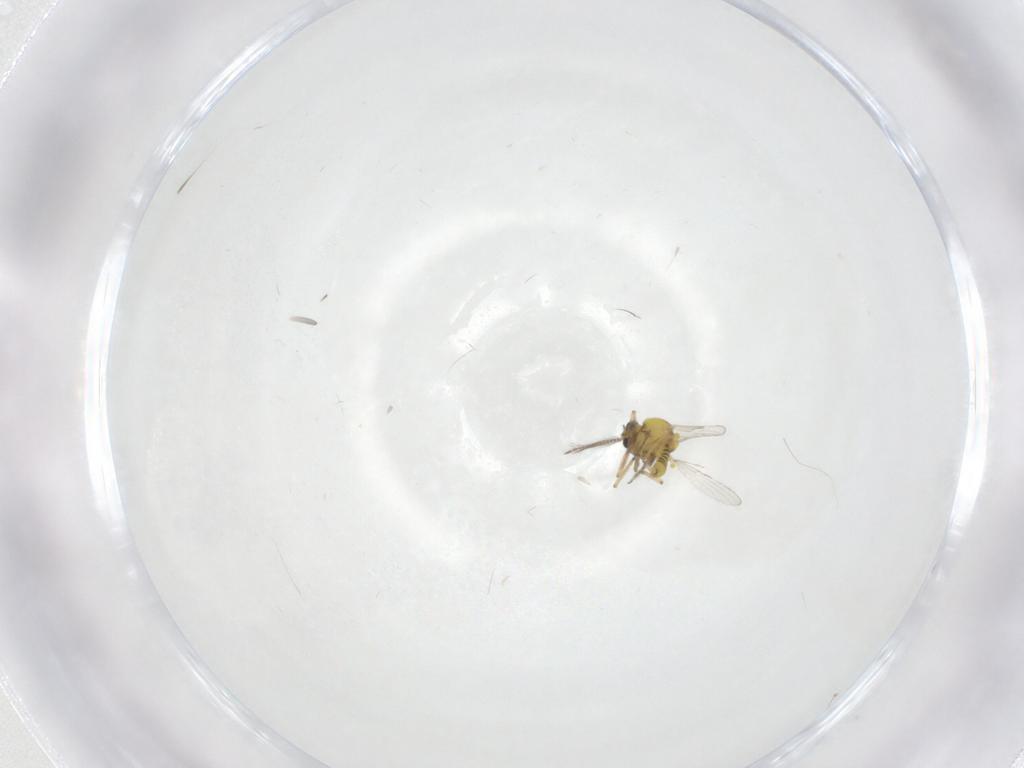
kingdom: Animalia
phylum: Arthropoda
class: Insecta
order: Diptera
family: Ceratopogonidae
